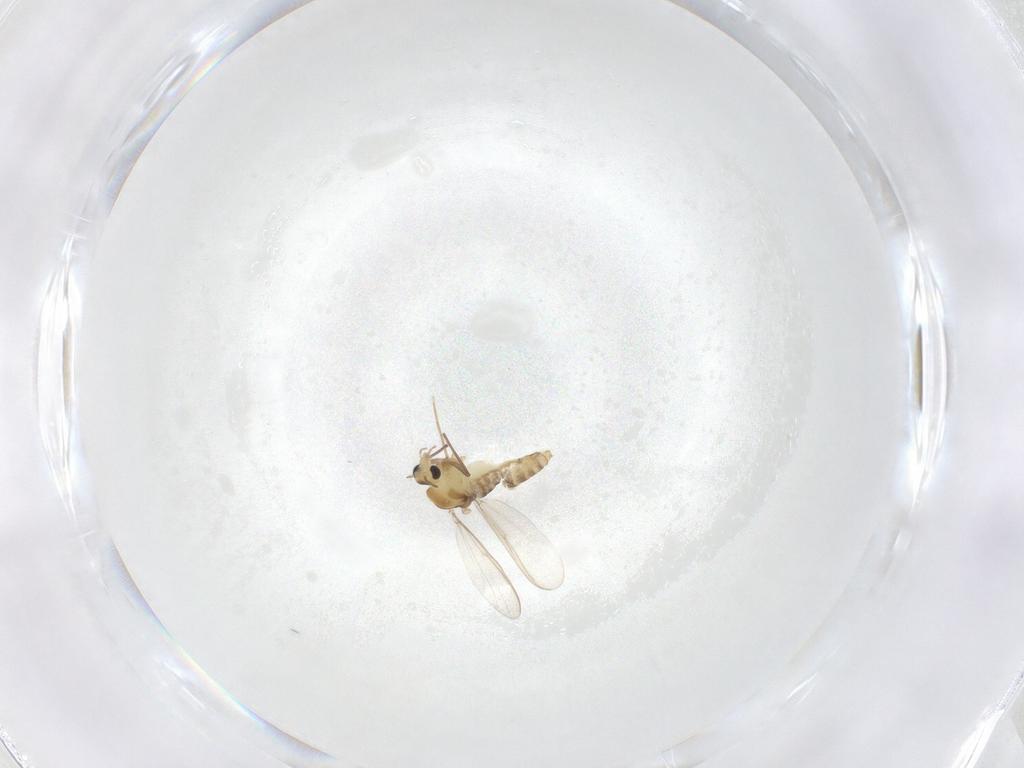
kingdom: Animalia
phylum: Arthropoda
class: Insecta
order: Diptera
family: Chironomidae
